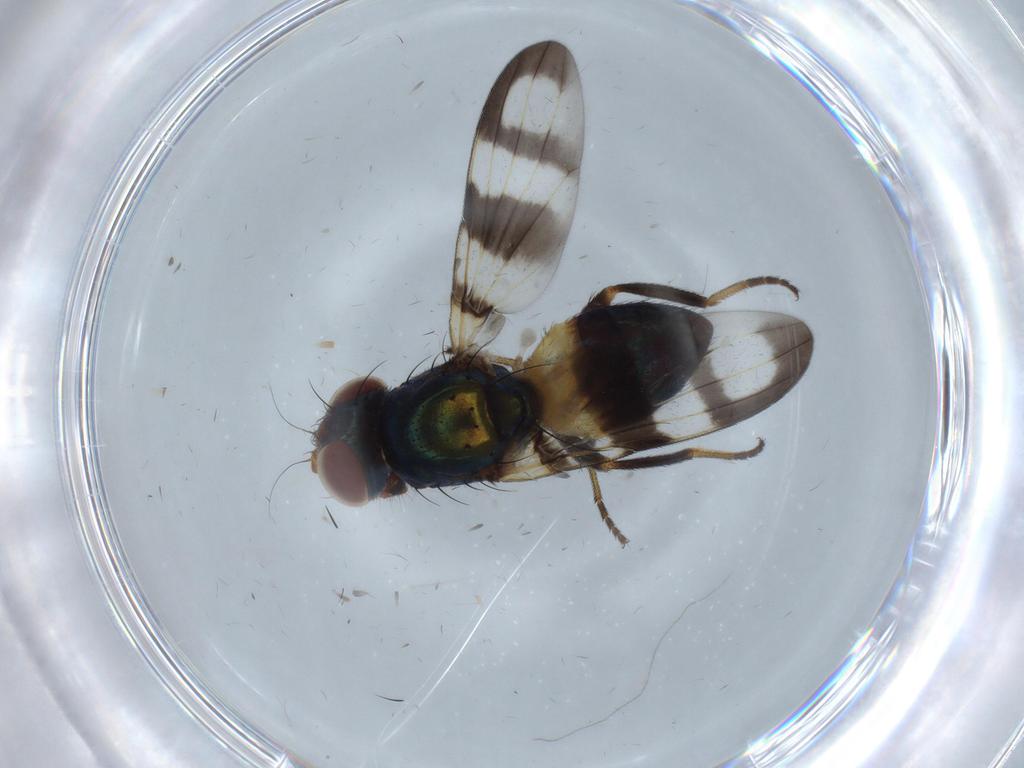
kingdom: Animalia
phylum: Arthropoda
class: Insecta
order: Diptera
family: Ulidiidae
